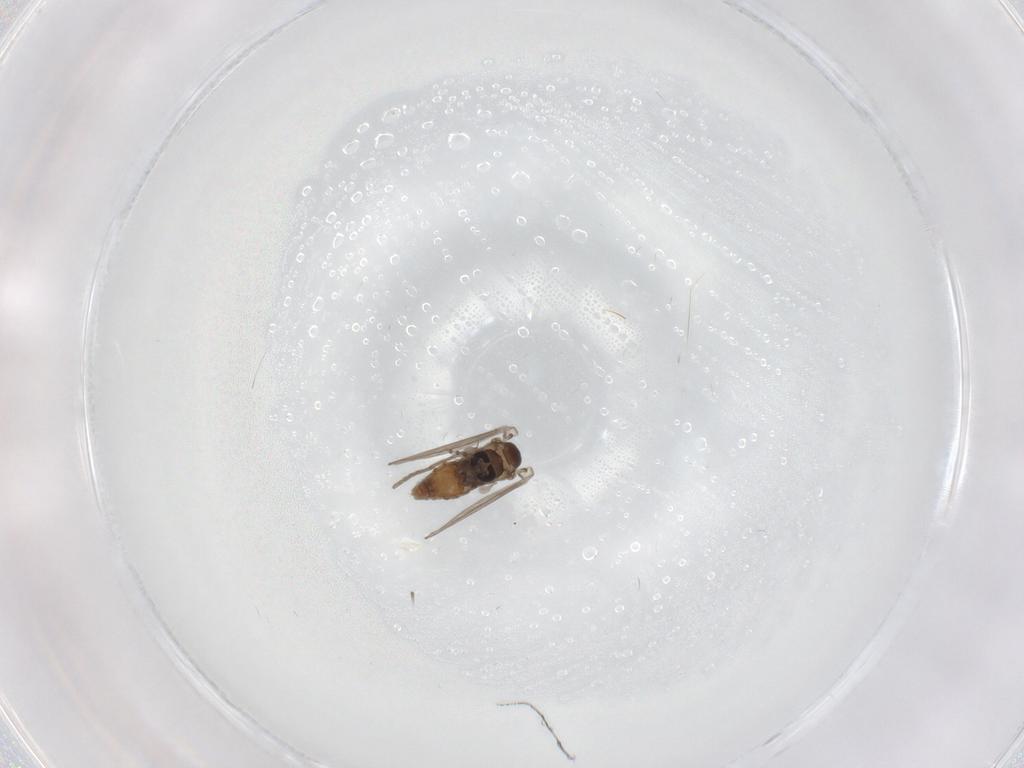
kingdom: Animalia
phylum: Arthropoda
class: Insecta
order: Diptera
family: Psychodidae
